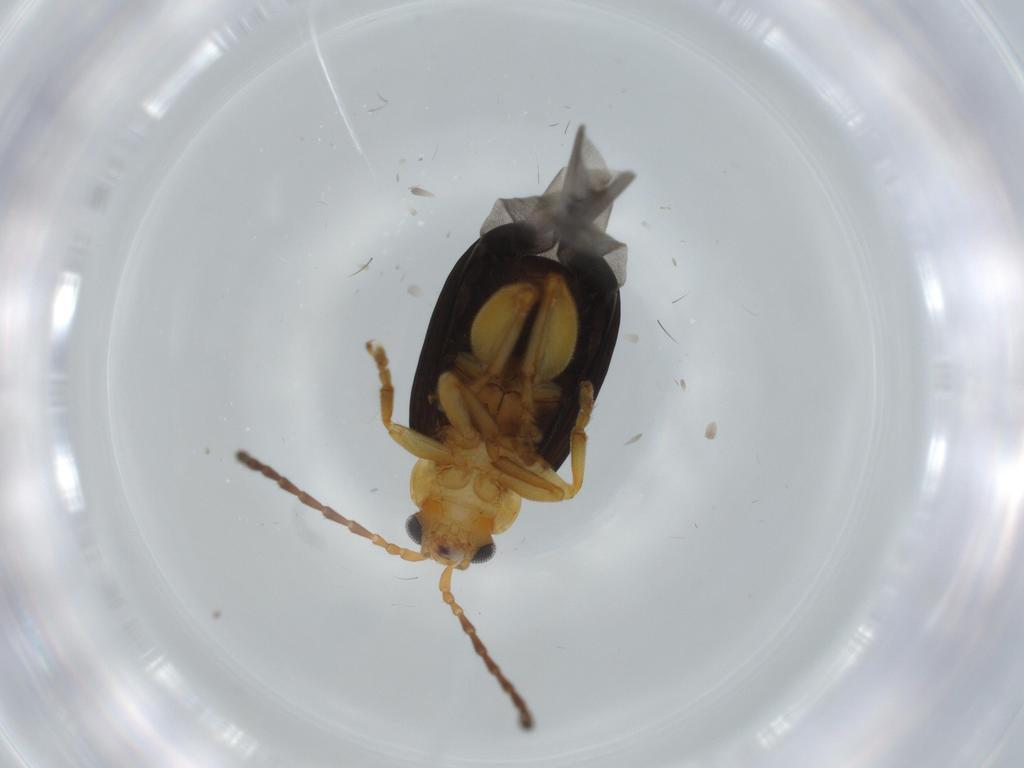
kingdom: Animalia
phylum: Arthropoda
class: Insecta
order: Coleoptera
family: Chrysomelidae
